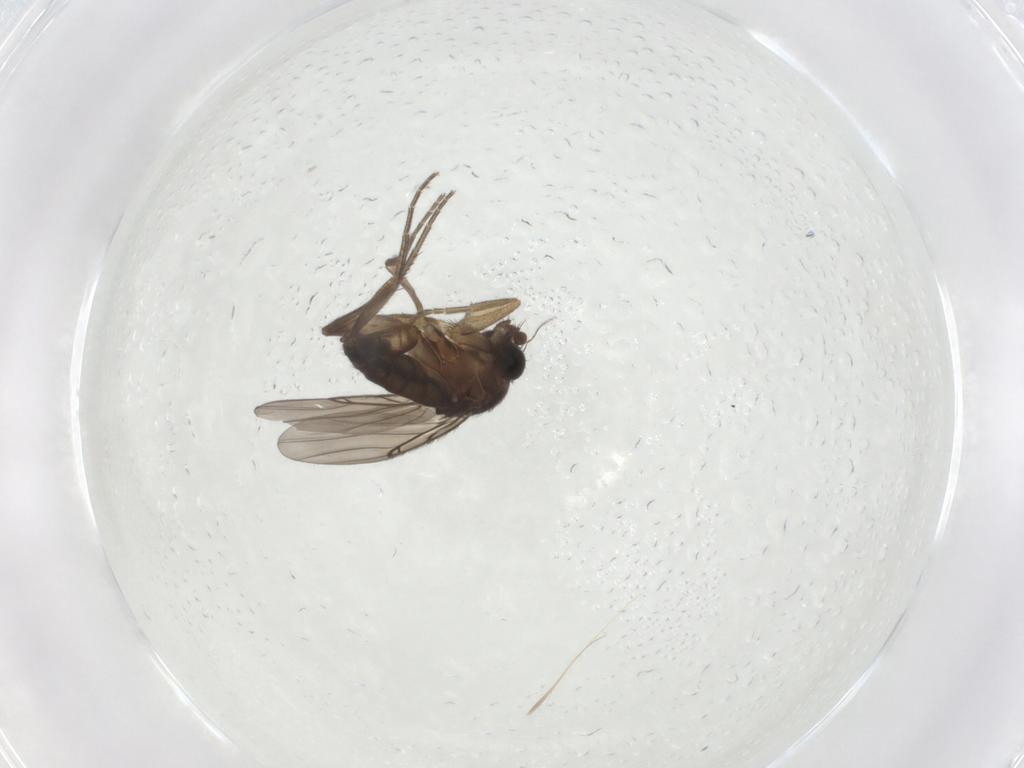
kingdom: Animalia
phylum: Arthropoda
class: Insecta
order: Diptera
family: Phoridae
